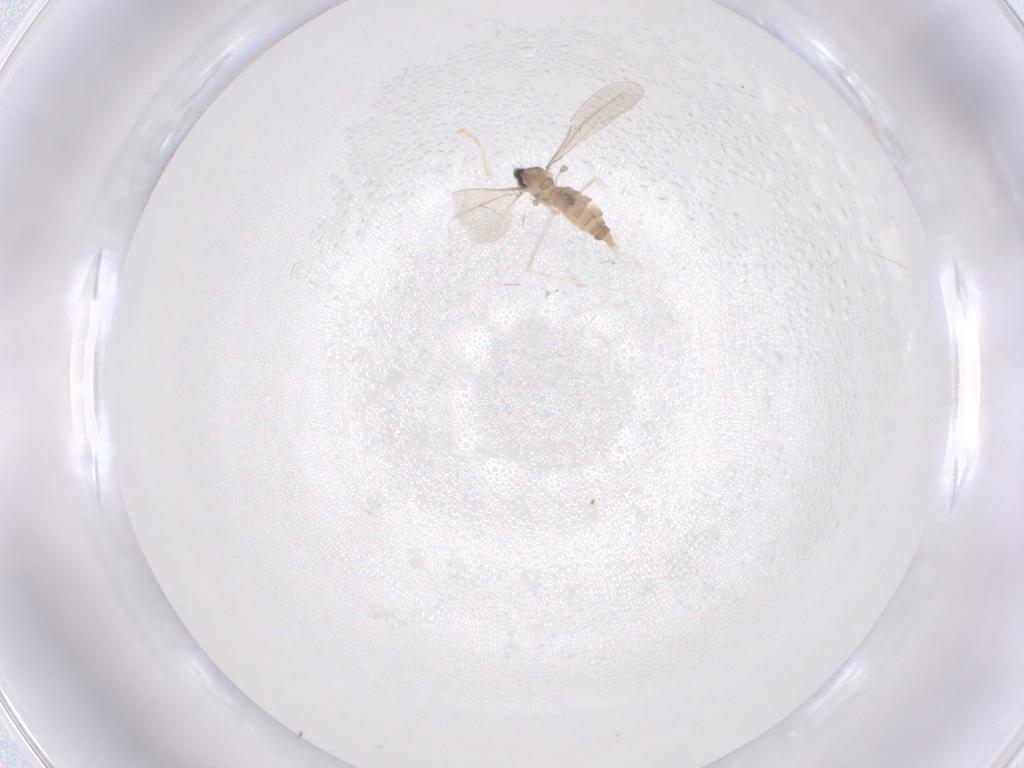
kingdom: Animalia
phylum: Arthropoda
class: Insecta
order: Diptera
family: Cecidomyiidae
